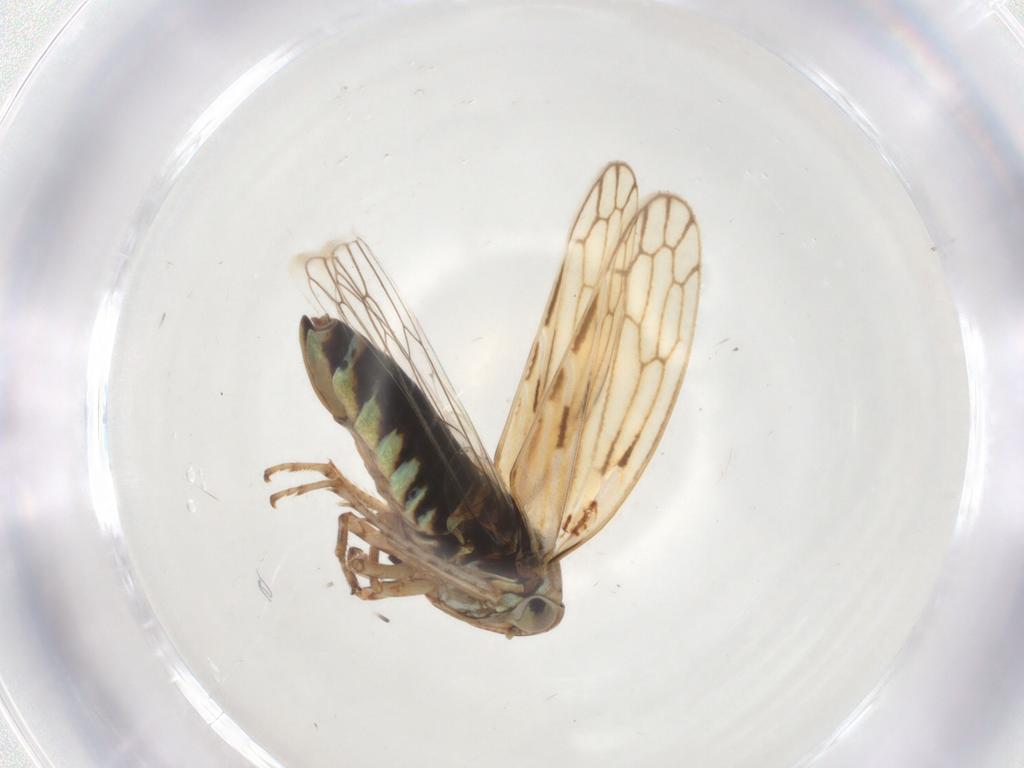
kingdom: Animalia
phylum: Arthropoda
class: Insecta
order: Hemiptera
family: Cicadellidae
